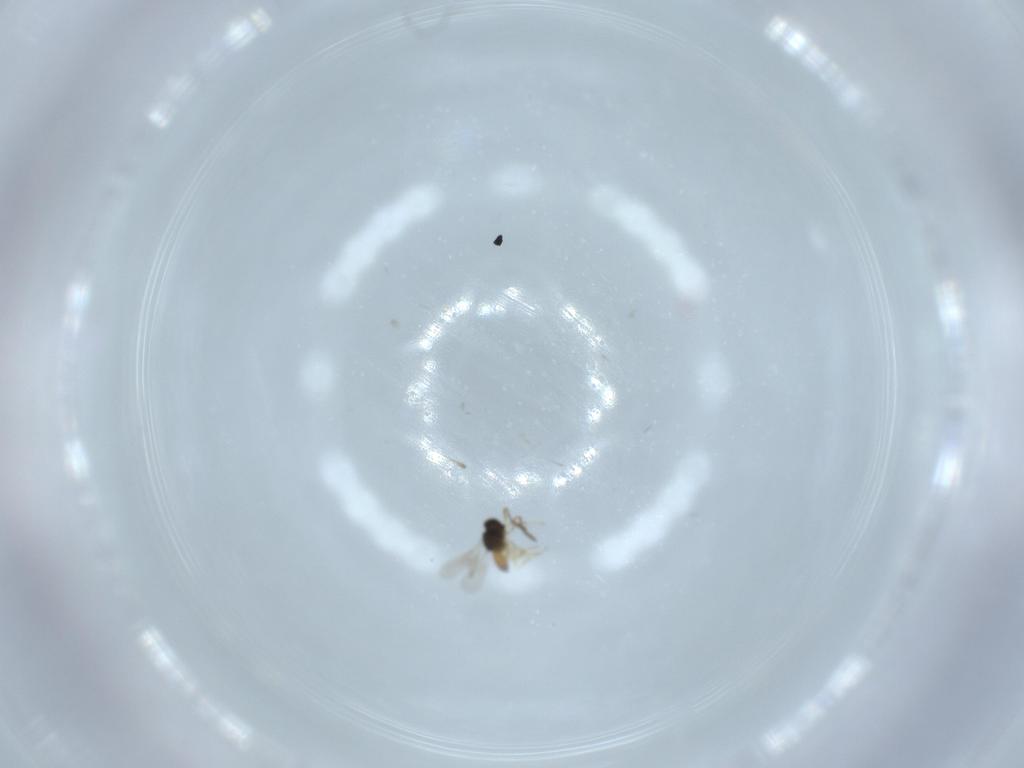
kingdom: Animalia
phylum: Arthropoda
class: Insecta
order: Hymenoptera
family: Scelionidae
